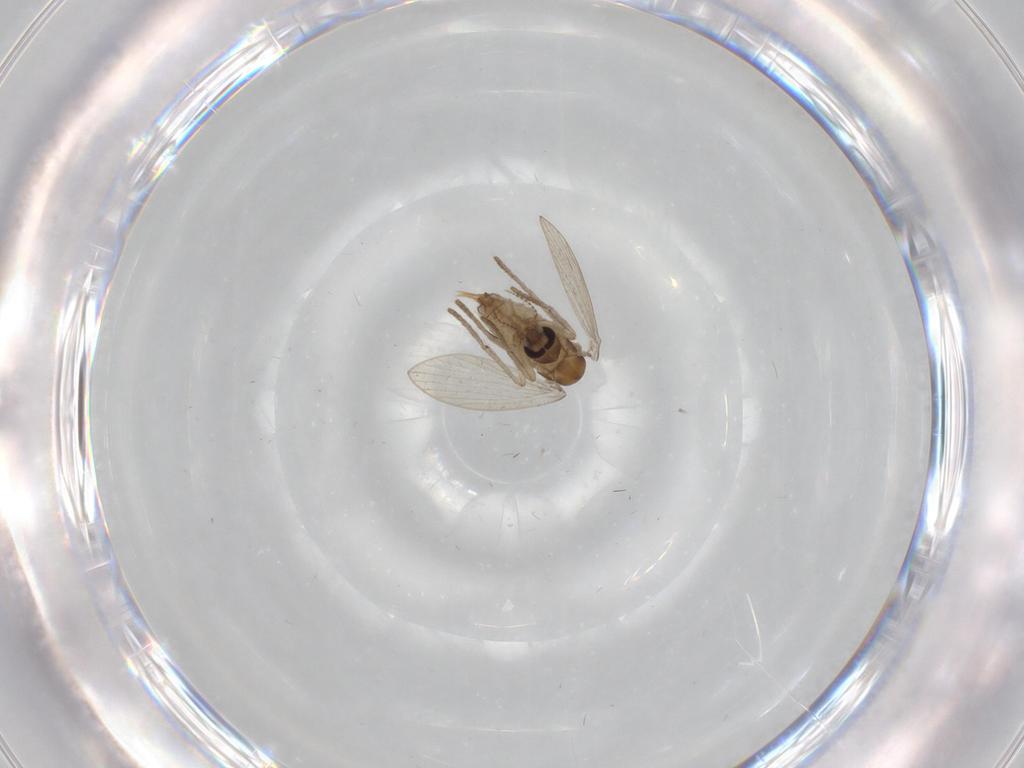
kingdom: Animalia
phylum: Arthropoda
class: Insecta
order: Diptera
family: Psychodidae
